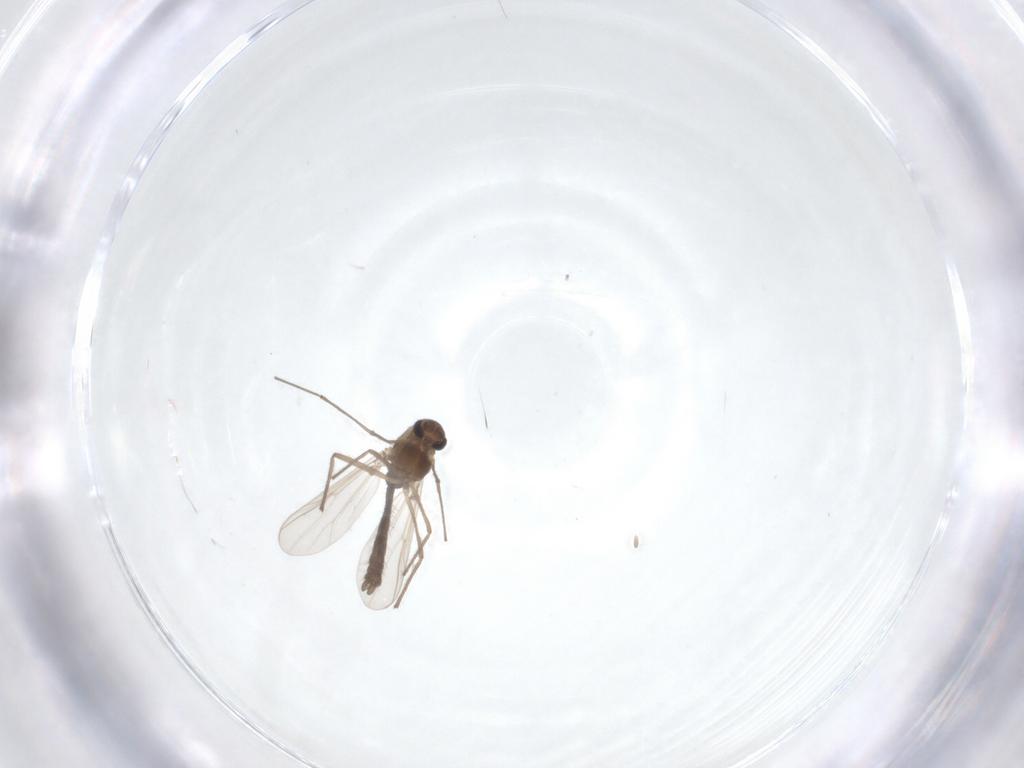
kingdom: Animalia
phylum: Arthropoda
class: Insecta
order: Diptera
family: Chironomidae
